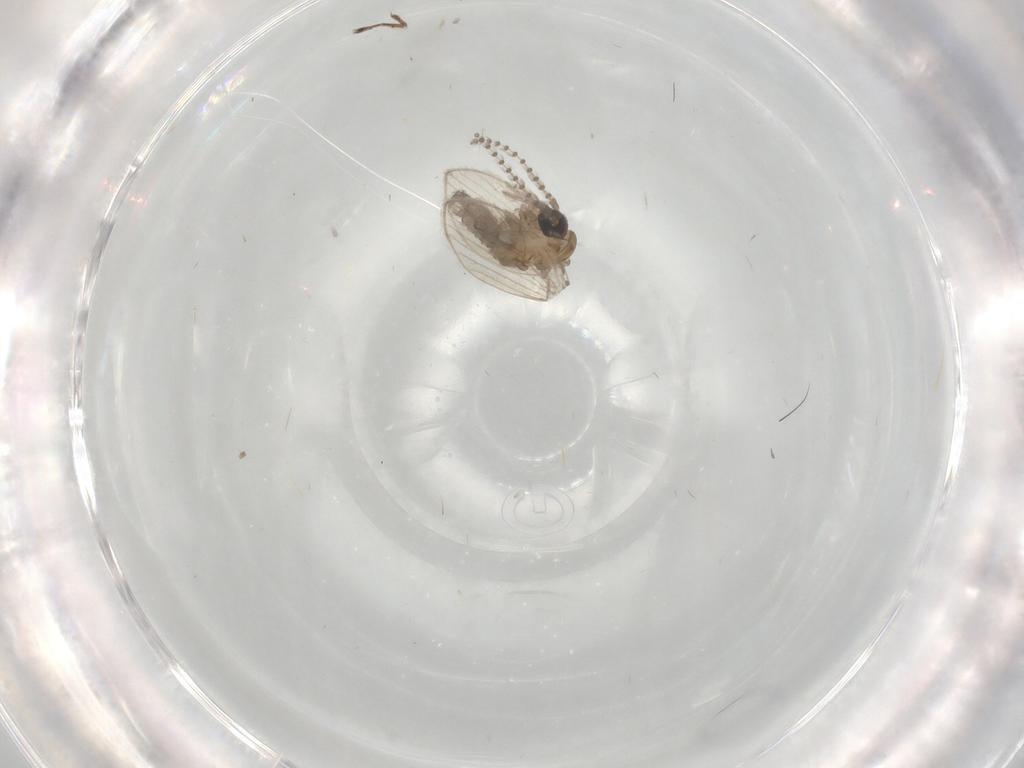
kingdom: Animalia
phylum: Arthropoda
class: Insecta
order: Diptera
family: Psychodidae
